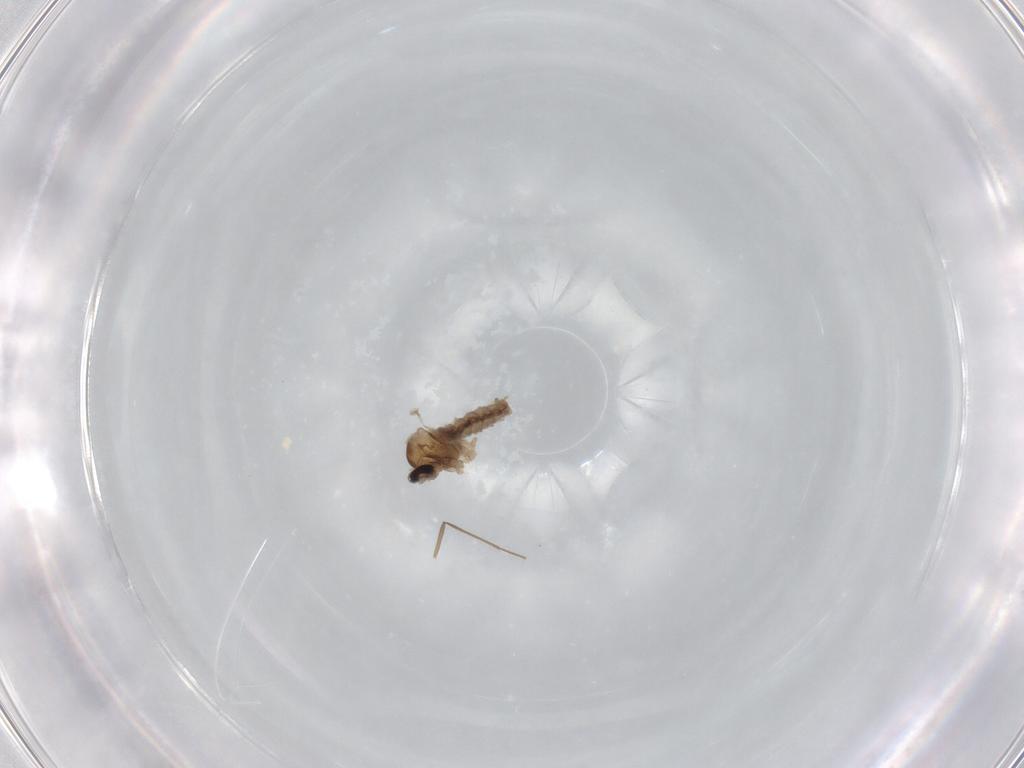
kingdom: Animalia
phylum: Arthropoda
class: Insecta
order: Diptera
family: Cecidomyiidae
